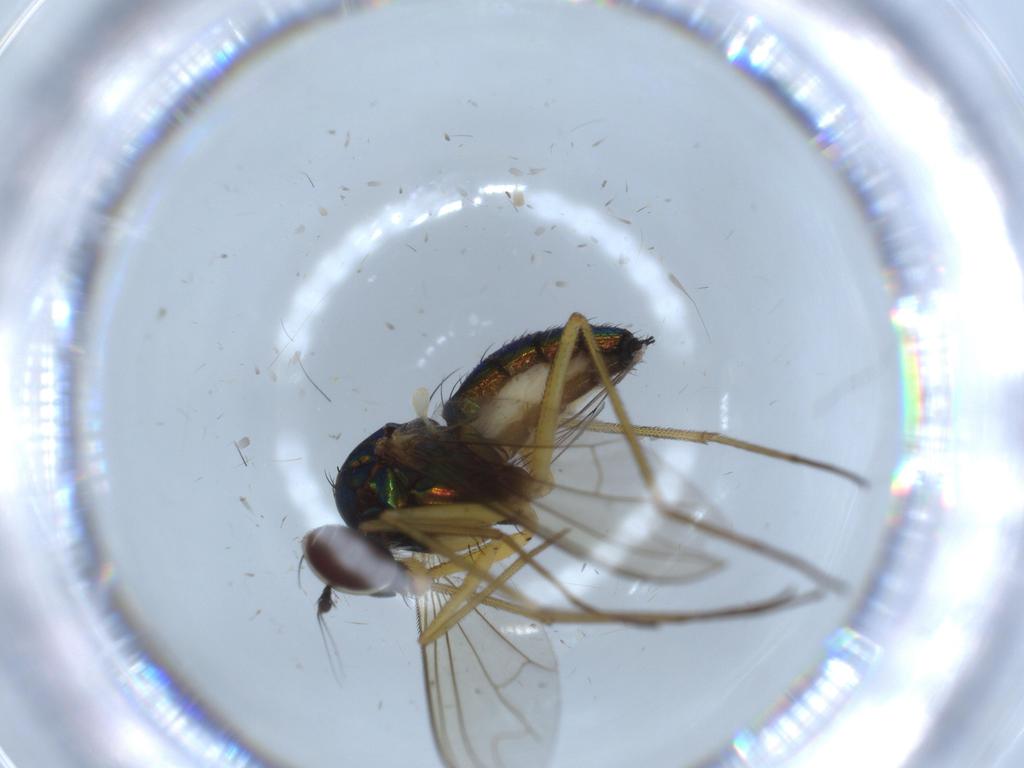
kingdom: Animalia
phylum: Arthropoda
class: Insecta
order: Diptera
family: Dolichopodidae
